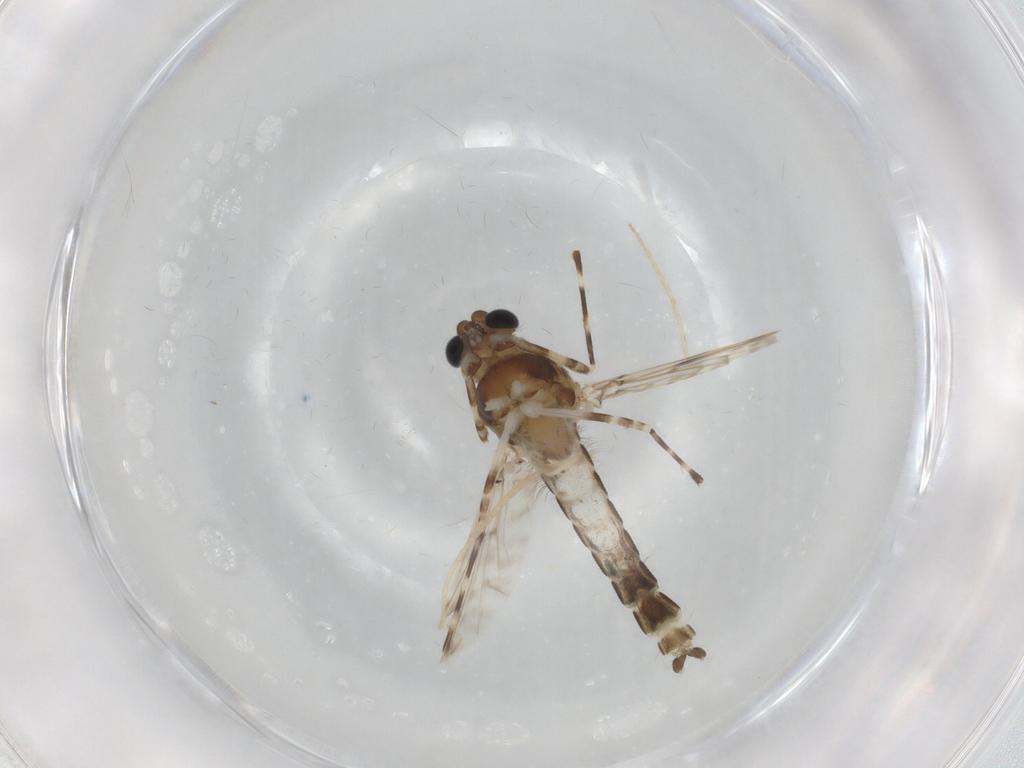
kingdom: Animalia
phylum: Arthropoda
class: Insecta
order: Diptera
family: Chironomidae
